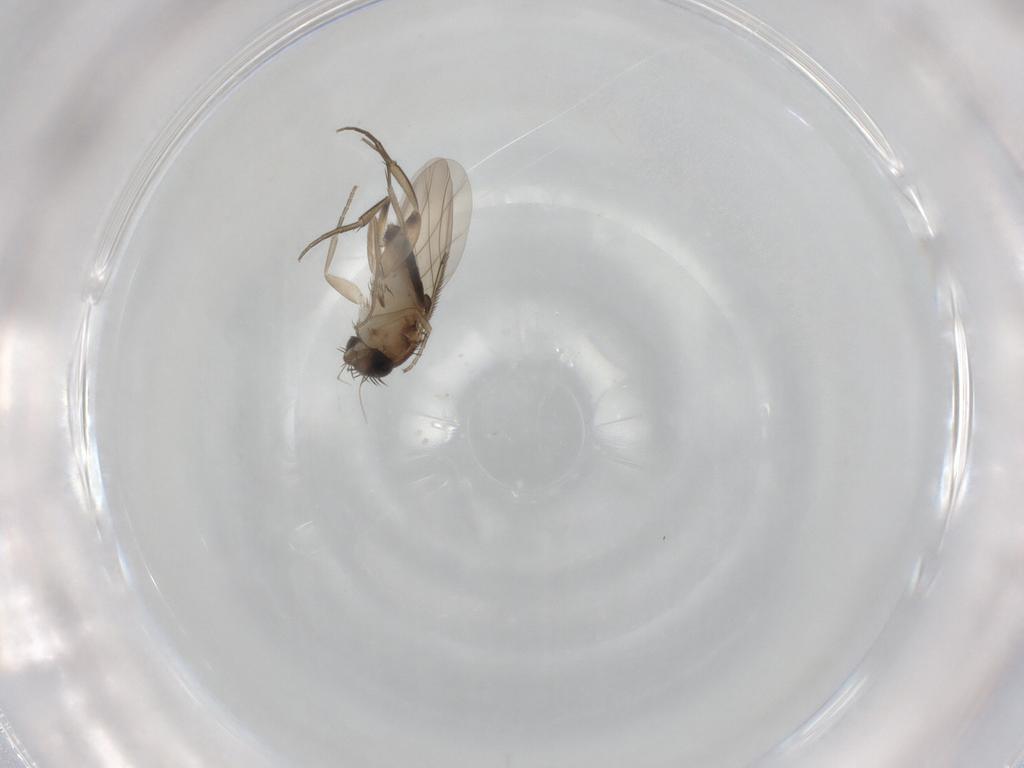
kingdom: Animalia
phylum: Arthropoda
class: Insecta
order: Diptera
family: Phoridae
